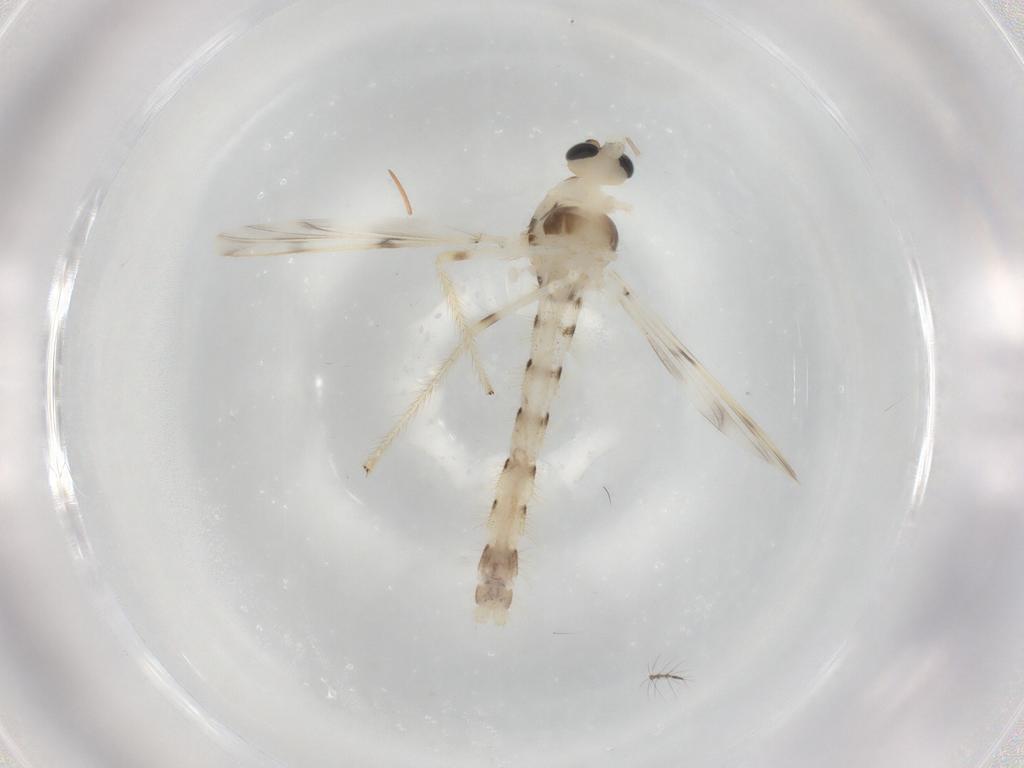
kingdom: Animalia
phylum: Arthropoda
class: Insecta
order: Diptera
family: Chironomidae
